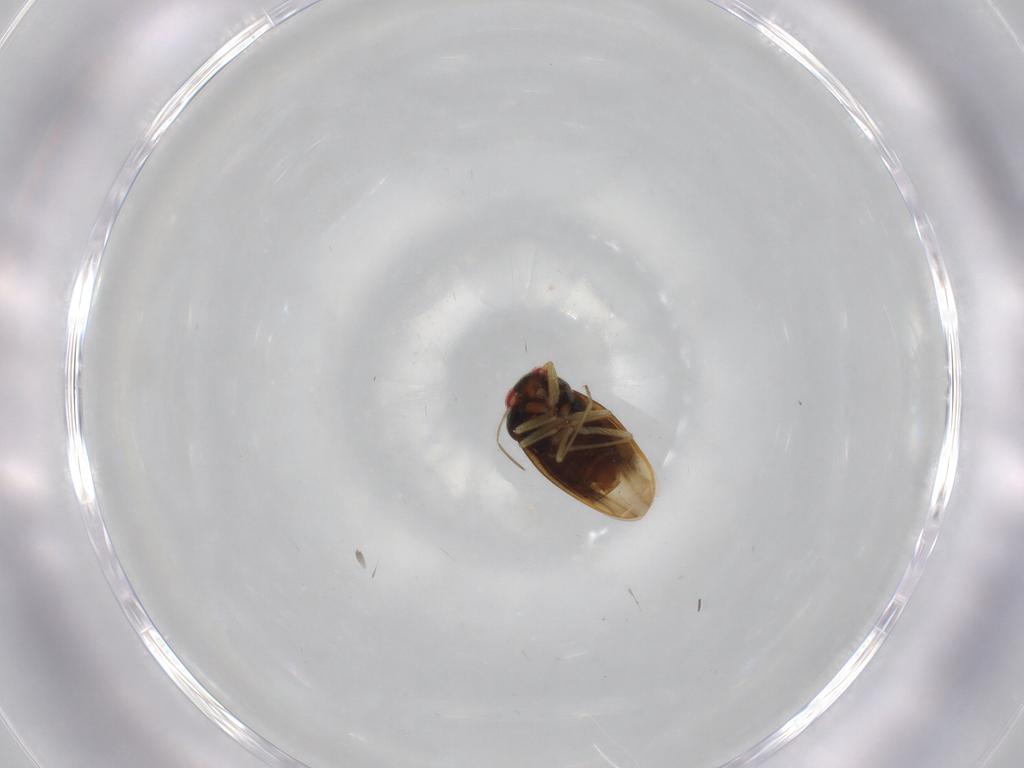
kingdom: Animalia
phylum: Arthropoda
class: Insecta
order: Hemiptera
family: Schizopteridae
